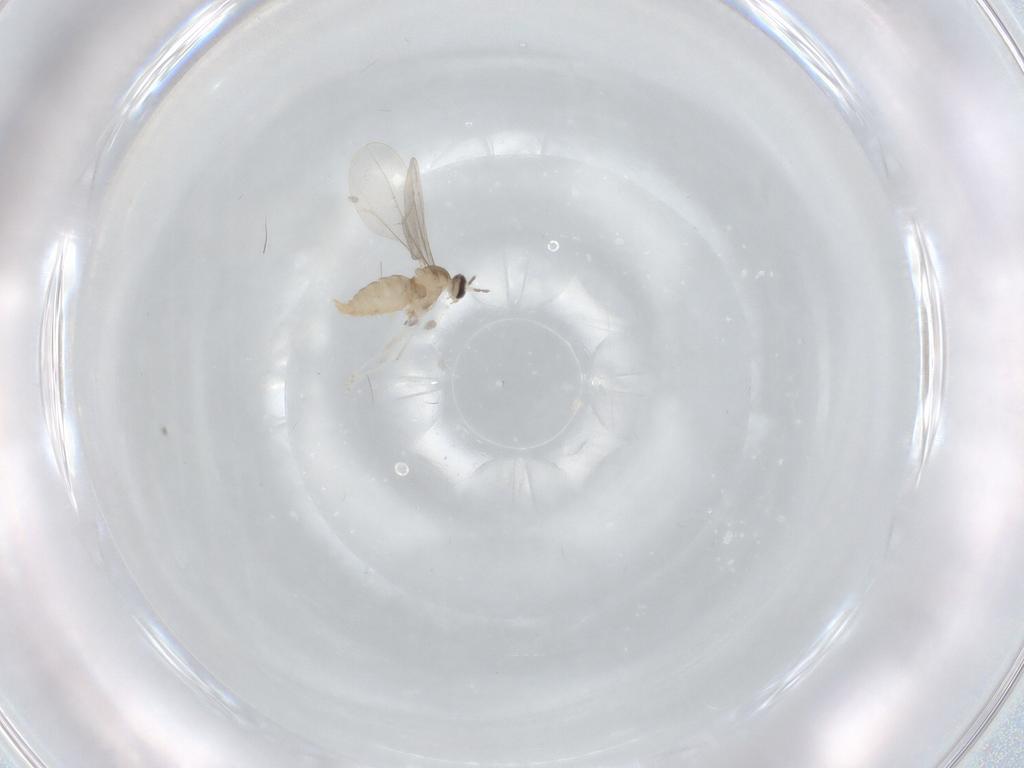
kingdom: Animalia
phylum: Arthropoda
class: Insecta
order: Diptera
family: Cecidomyiidae
